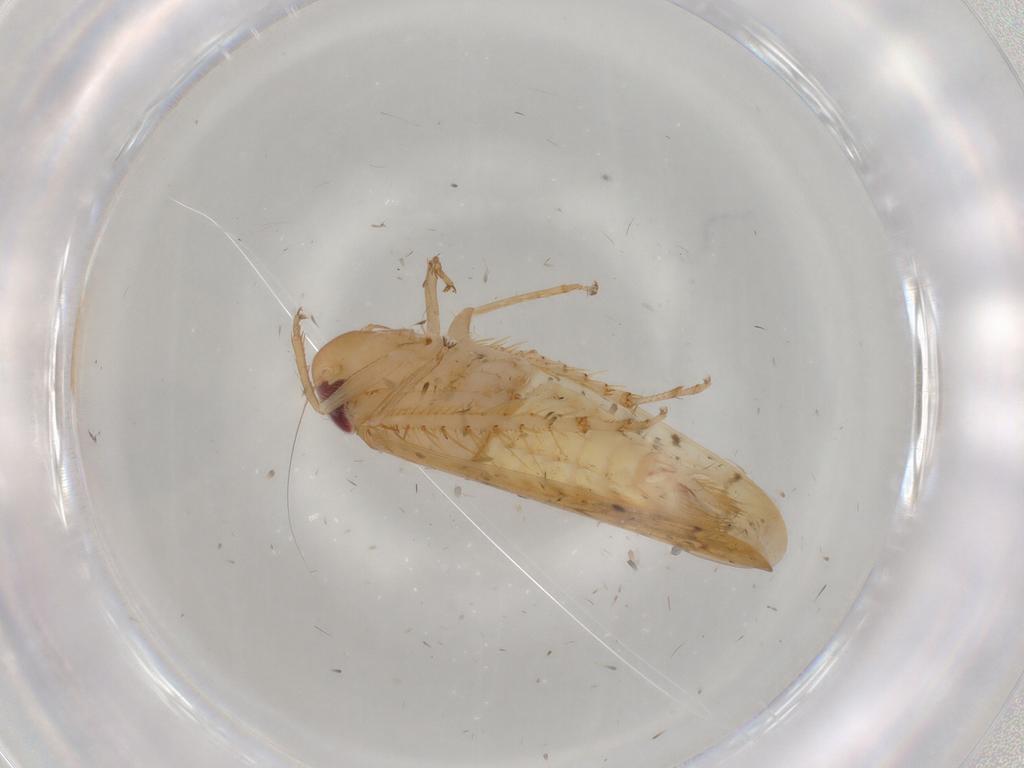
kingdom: Animalia
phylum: Arthropoda
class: Insecta
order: Hemiptera
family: Cicadellidae
